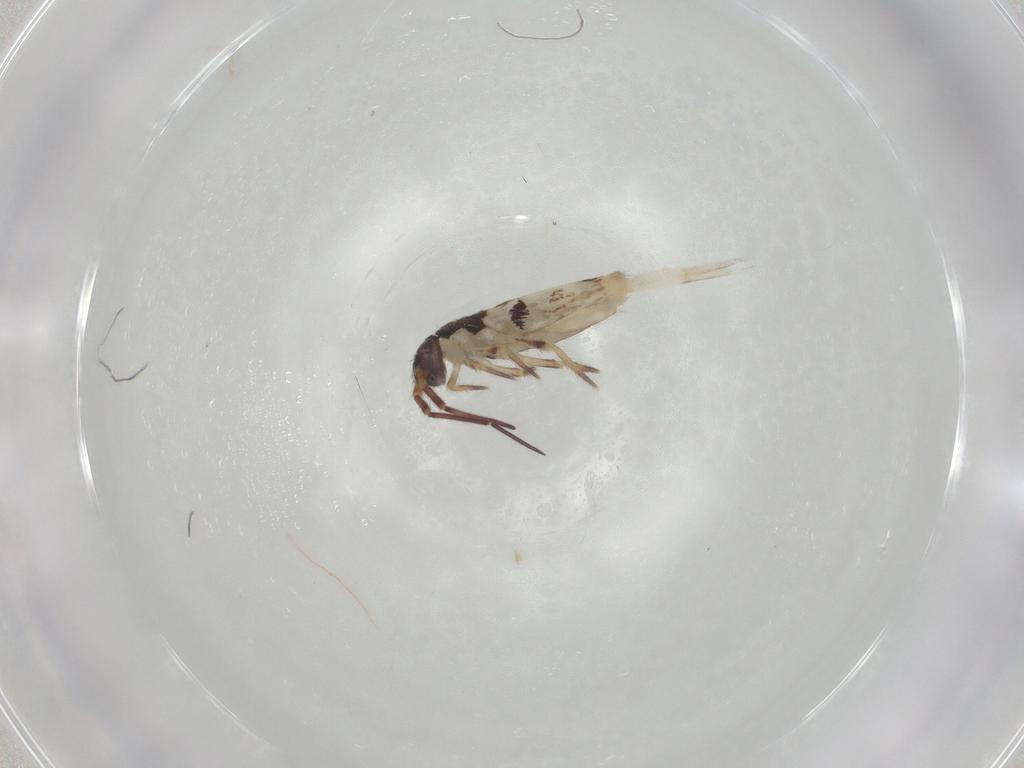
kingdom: Animalia
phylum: Arthropoda
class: Collembola
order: Entomobryomorpha
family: Entomobryidae
